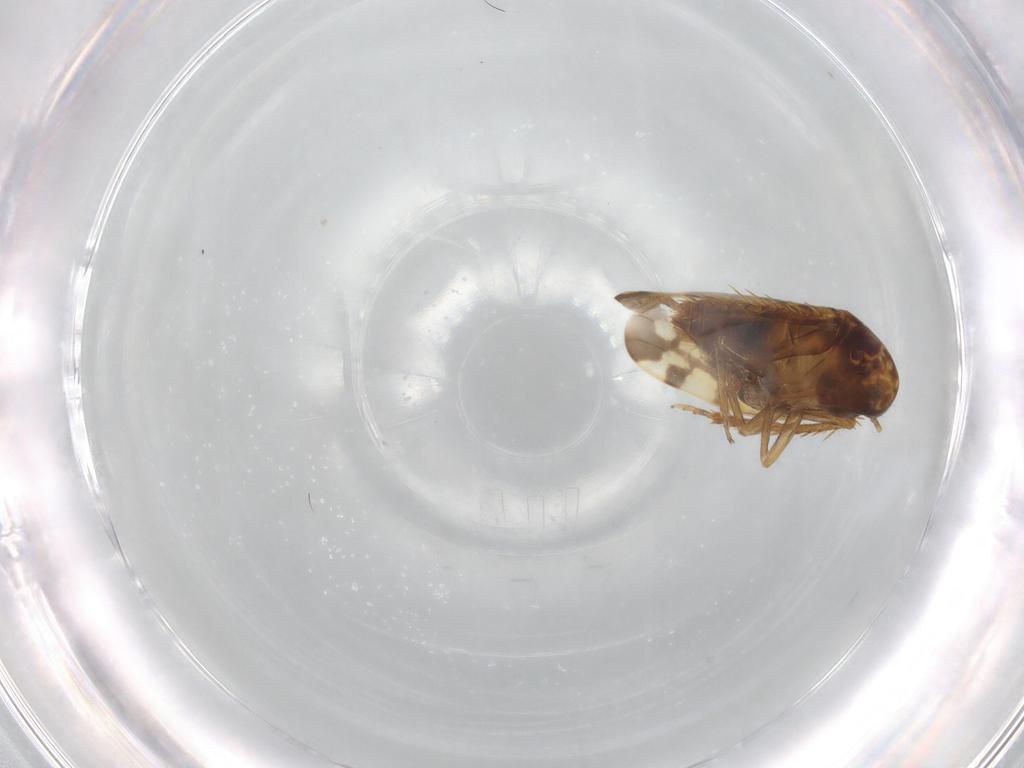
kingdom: Animalia
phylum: Arthropoda
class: Insecta
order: Hemiptera
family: Cicadellidae
